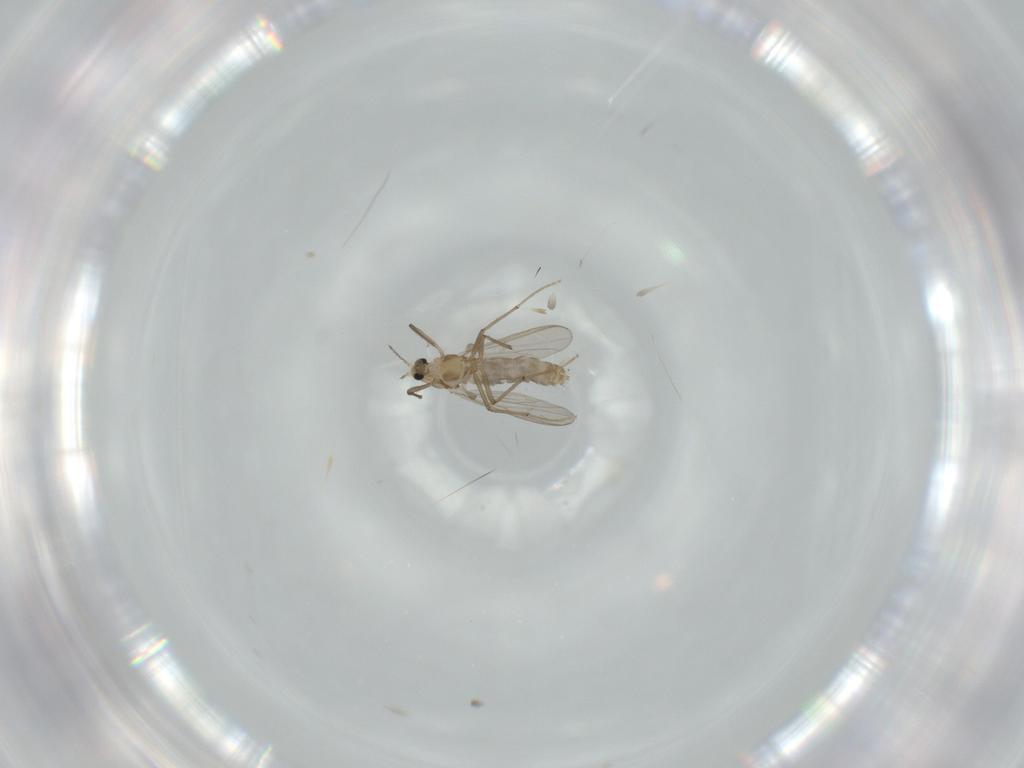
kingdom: Animalia
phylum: Arthropoda
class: Insecta
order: Diptera
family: Chironomidae
